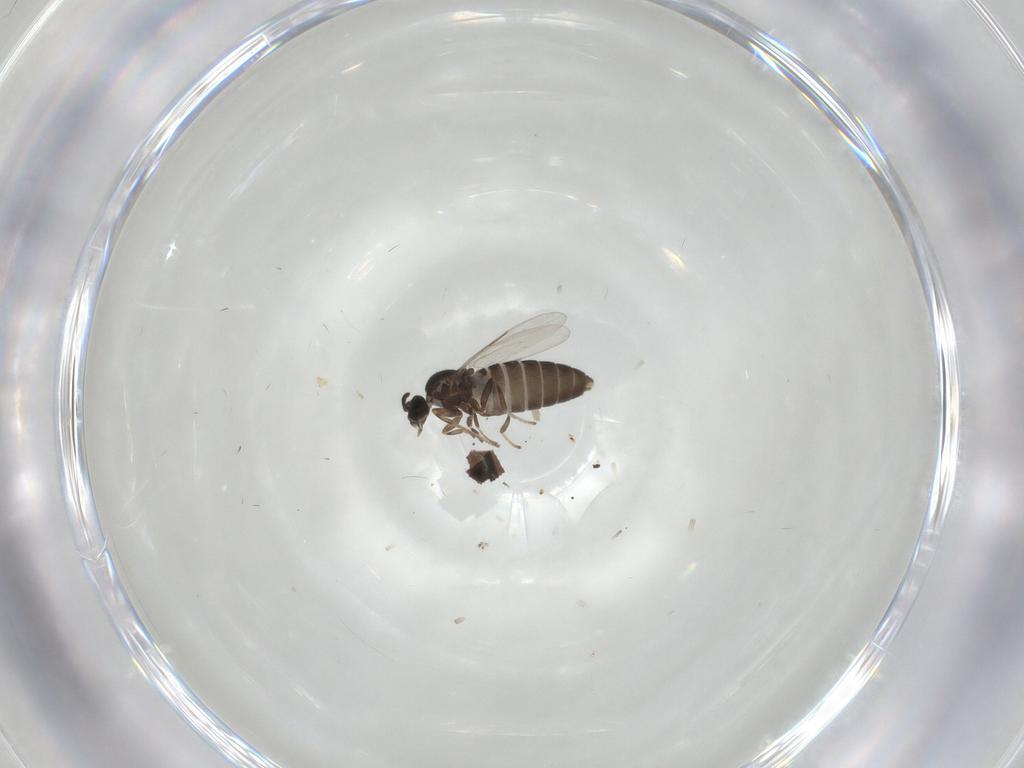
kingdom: Animalia
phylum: Arthropoda
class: Insecta
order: Diptera
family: Scatopsidae
